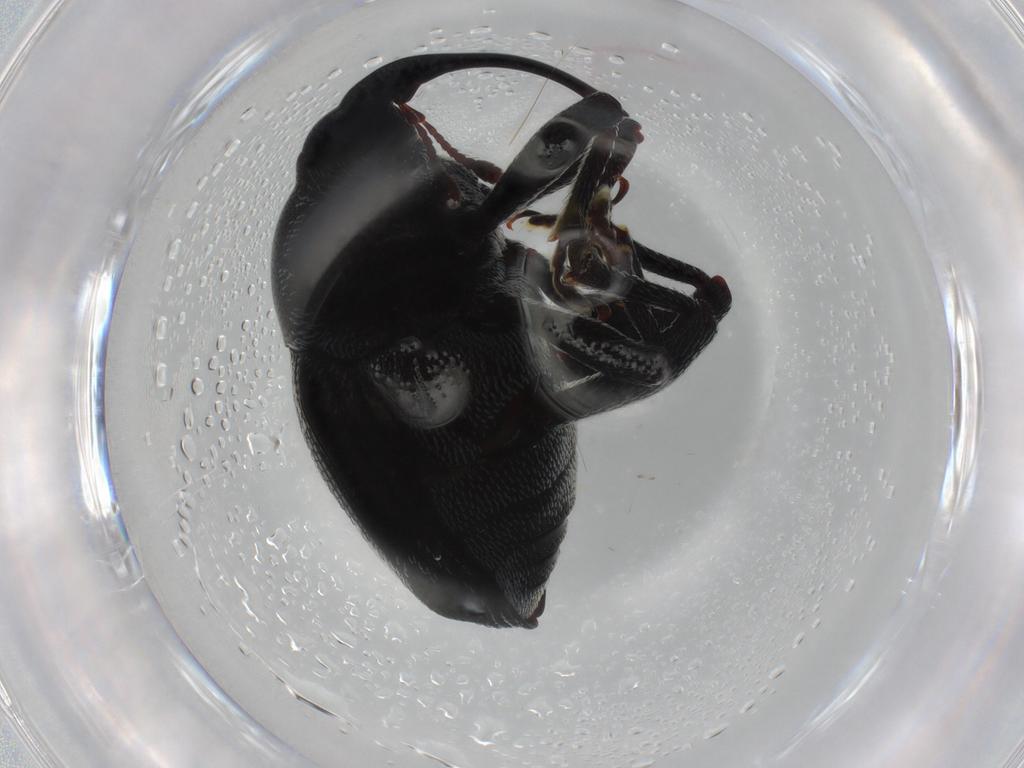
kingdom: Animalia
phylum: Arthropoda
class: Insecta
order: Coleoptera
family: Curculionidae
